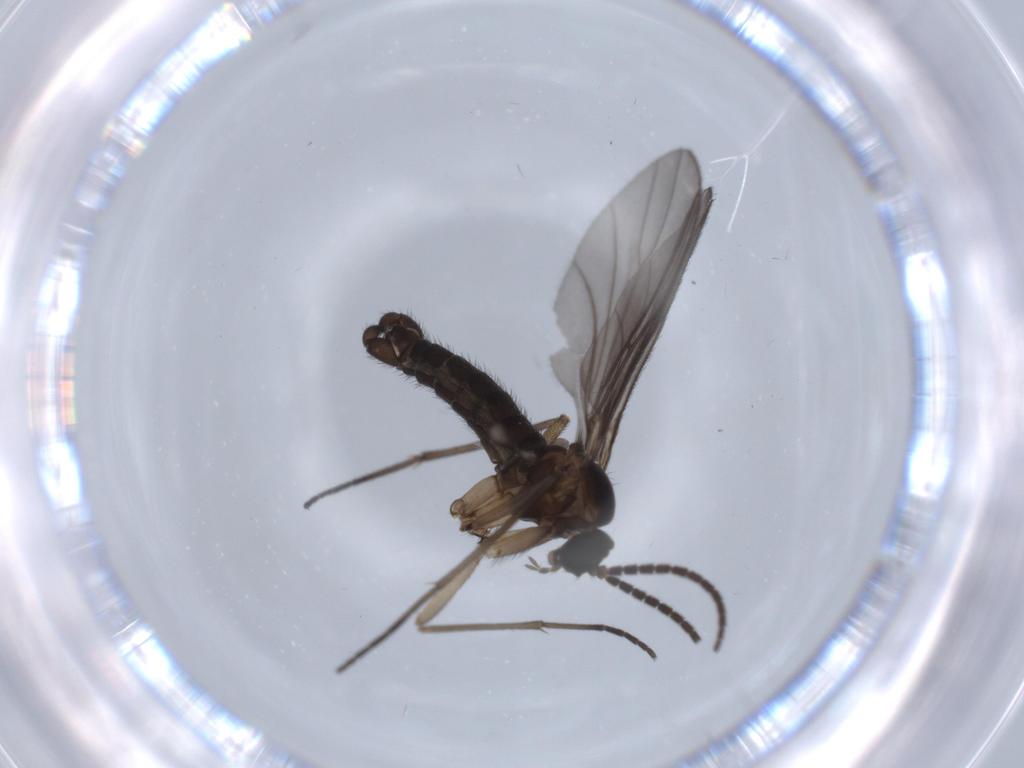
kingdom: Animalia
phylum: Arthropoda
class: Insecta
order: Diptera
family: Sciaridae
